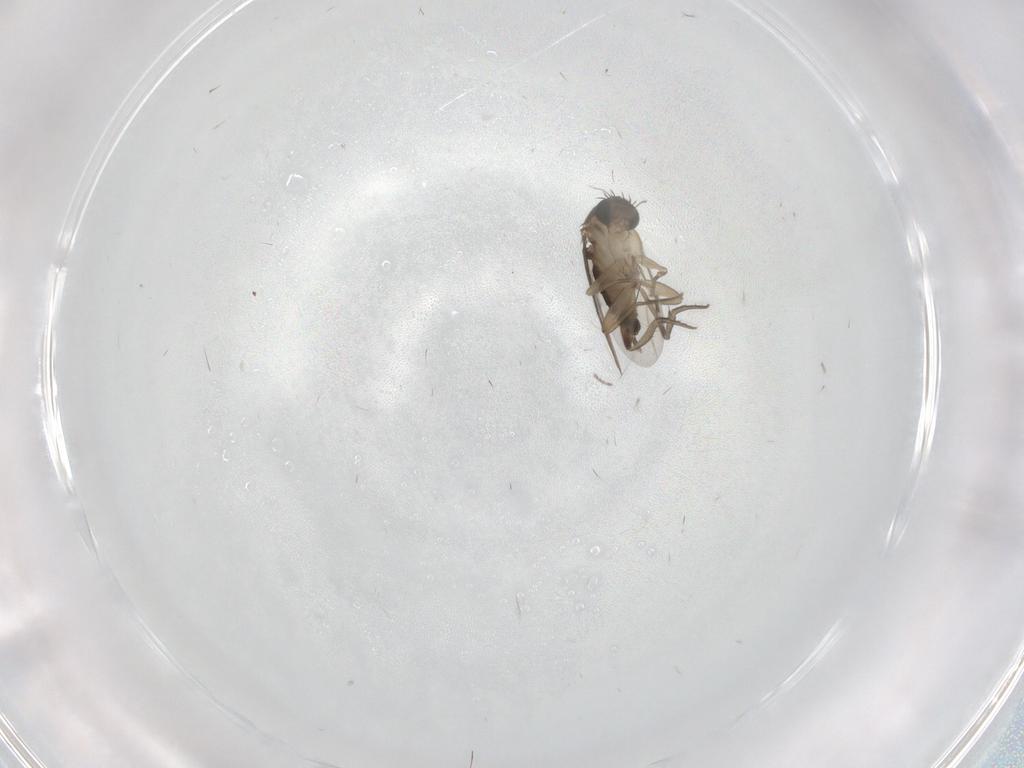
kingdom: Animalia
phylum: Arthropoda
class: Insecta
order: Diptera
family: Phoridae
